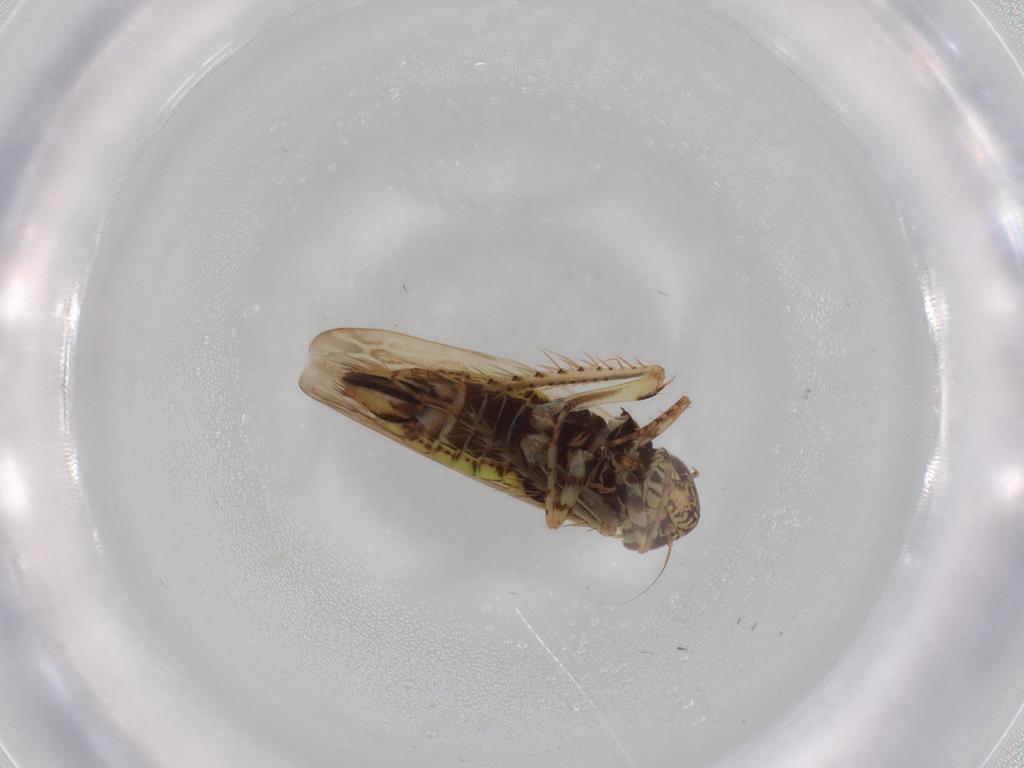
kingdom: Animalia
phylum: Arthropoda
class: Insecta
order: Hemiptera
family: Cicadellidae
